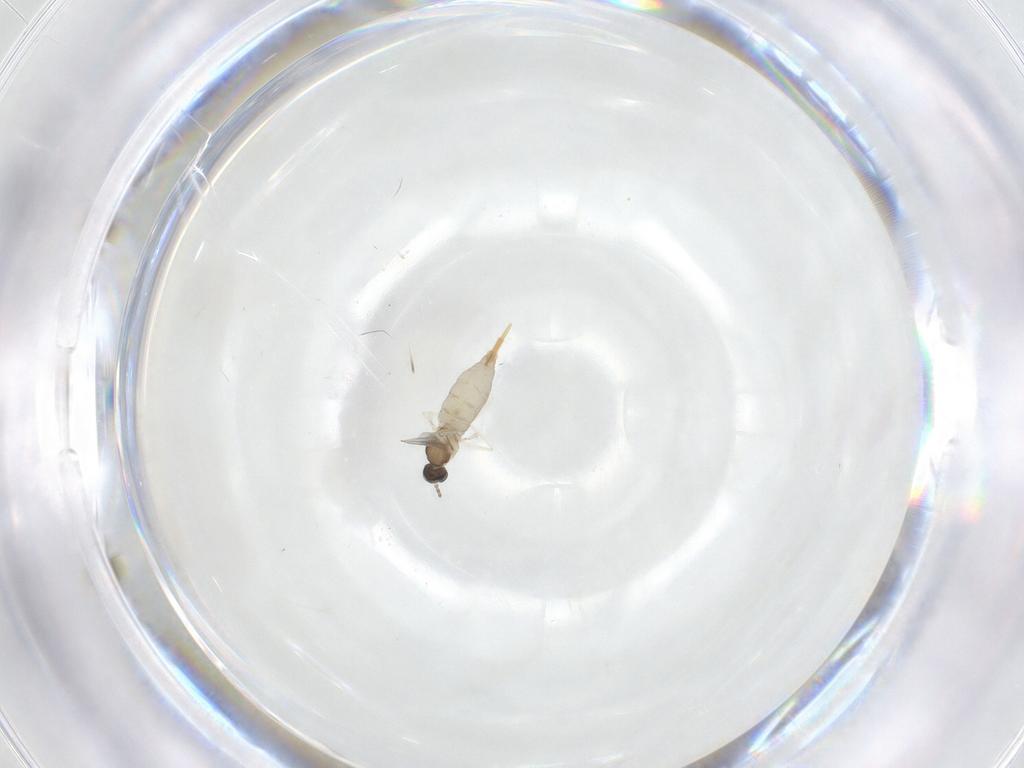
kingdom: Animalia
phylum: Arthropoda
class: Insecta
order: Diptera
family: Cecidomyiidae
